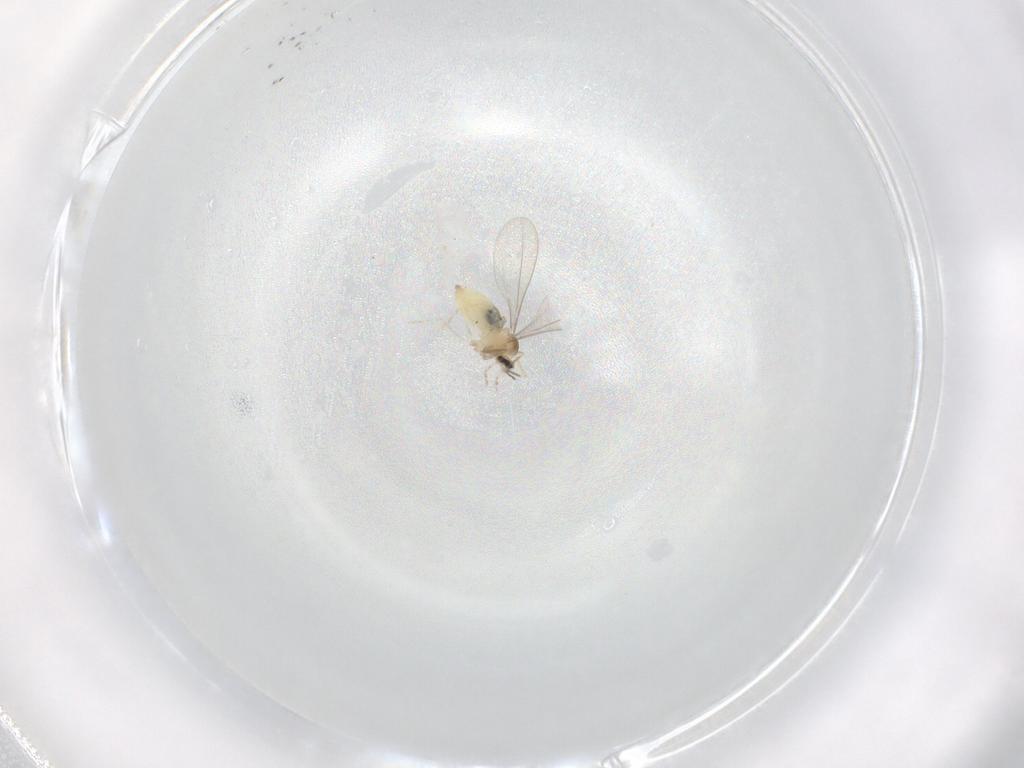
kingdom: Animalia
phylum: Arthropoda
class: Insecta
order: Diptera
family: Cecidomyiidae
